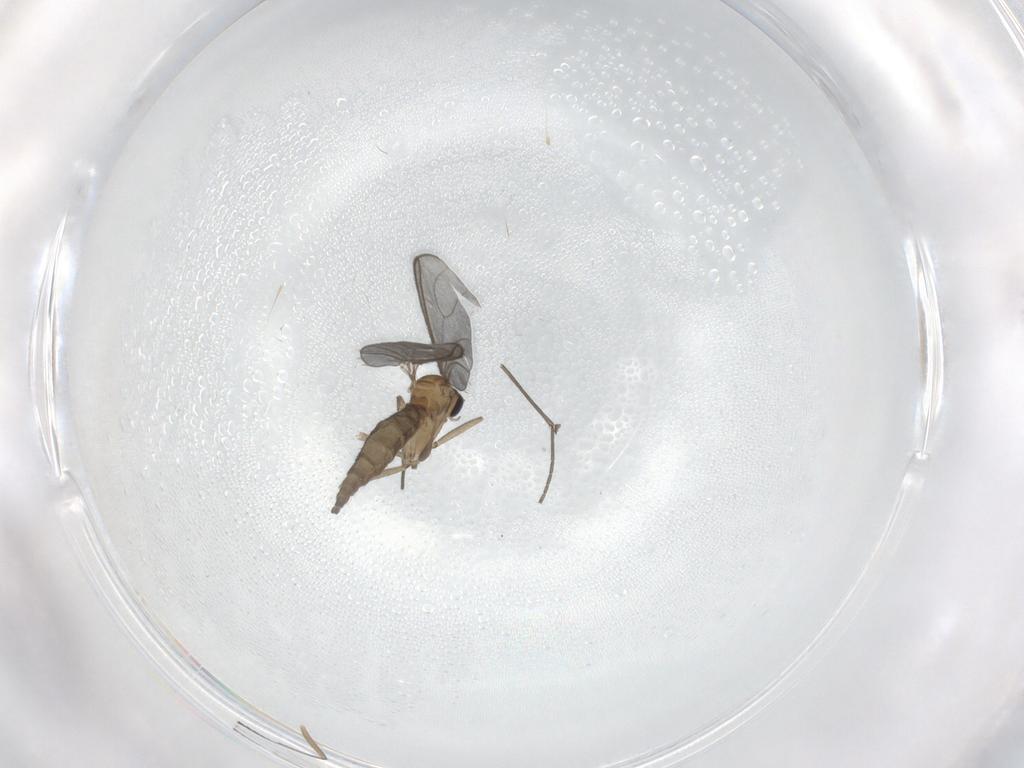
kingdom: Animalia
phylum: Arthropoda
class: Insecta
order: Diptera
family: Sciaridae
